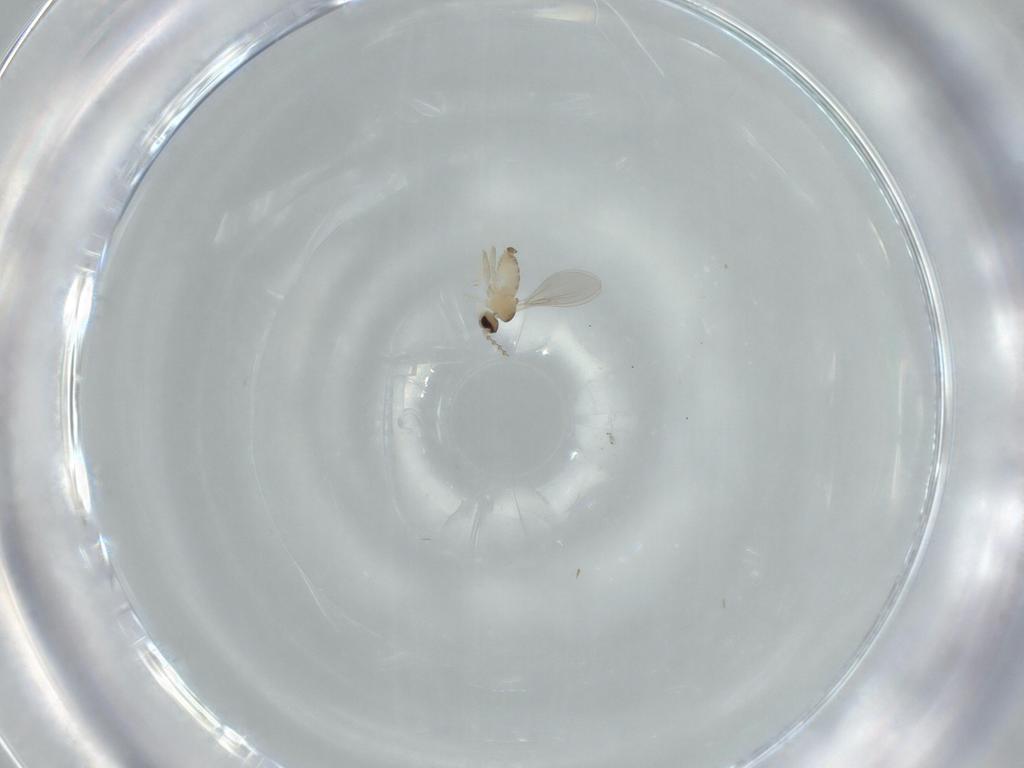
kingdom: Animalia
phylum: Arthropoda
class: Insecta
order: Diptera
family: Cecidomyiidae
